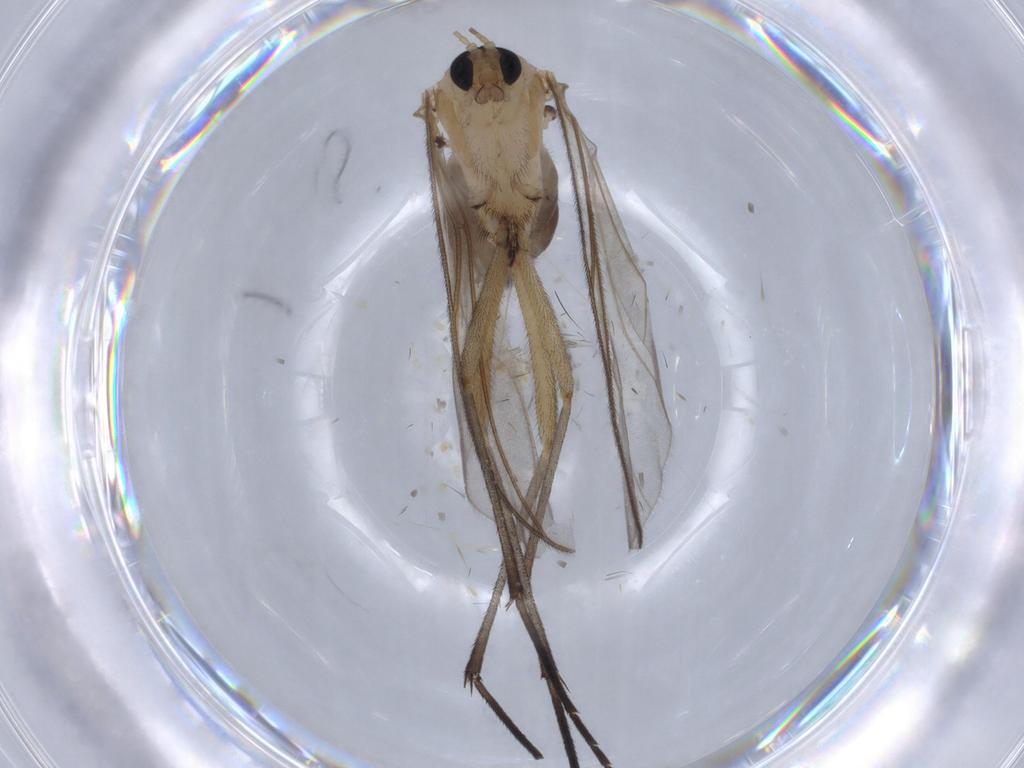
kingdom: Animalia
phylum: Arthropoda
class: Insecta
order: Diptera
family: Sciaridae
